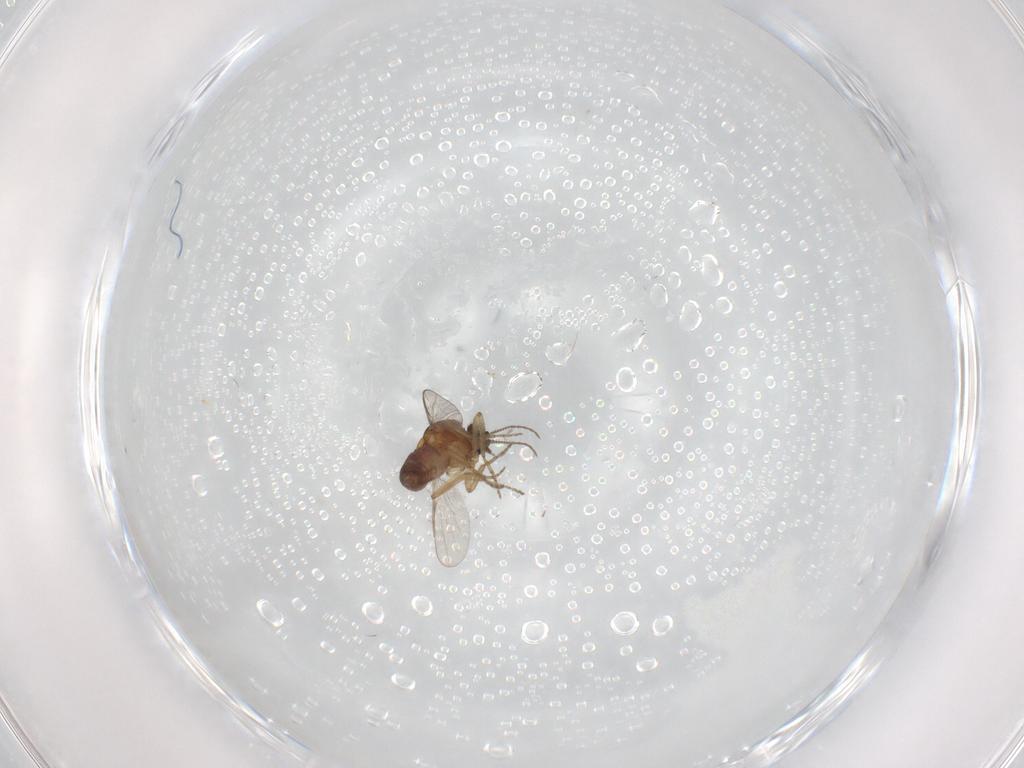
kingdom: Animalia
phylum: Arthropoda
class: Insecta
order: Diptera
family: Ceratopogonidae
